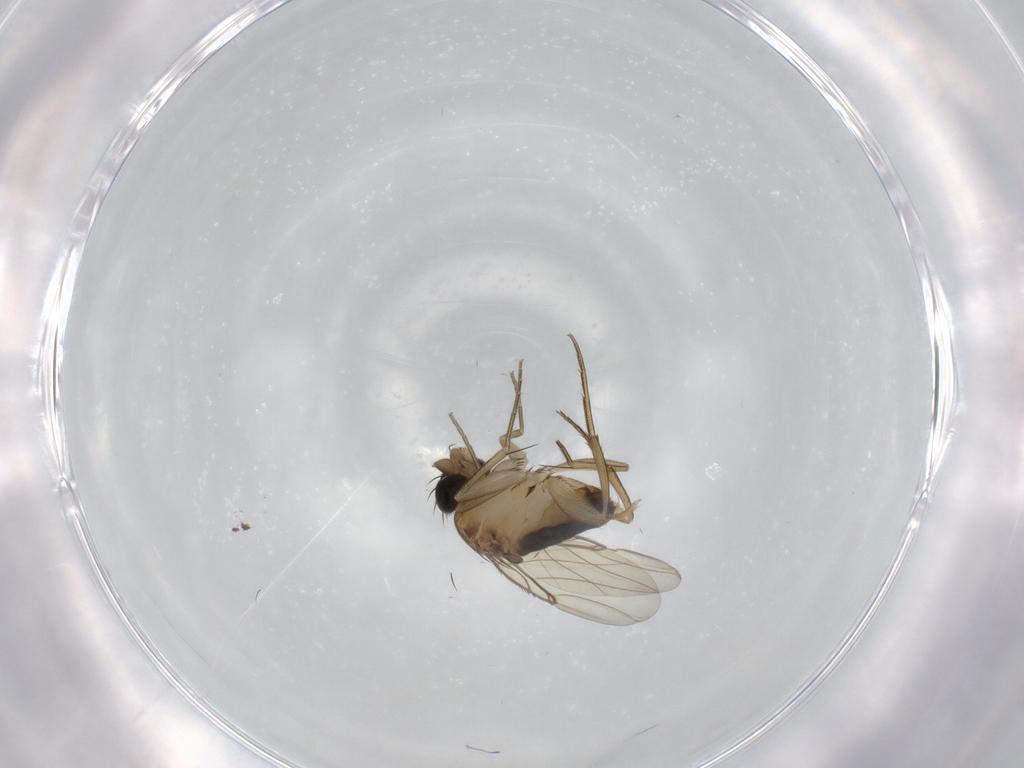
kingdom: Animalia
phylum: Arthropoda
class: Insecta
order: Diptera
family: Phoridae
